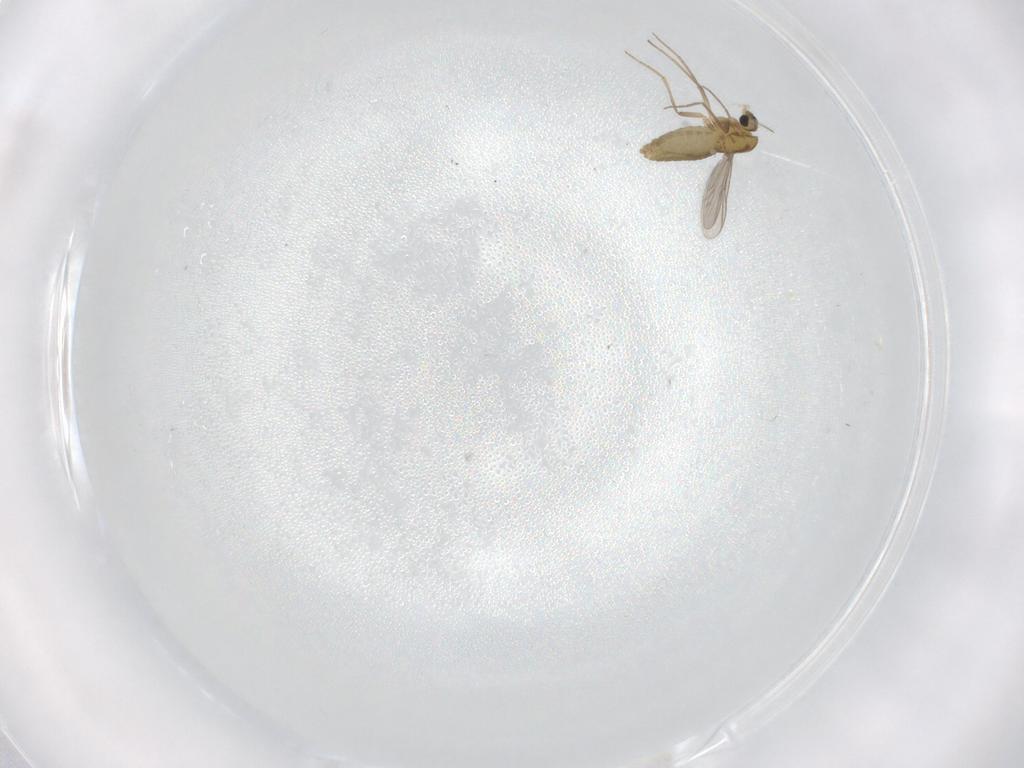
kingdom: Animalia
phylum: Arthropoda
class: Insecta
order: Diptera
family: Chironomidae
